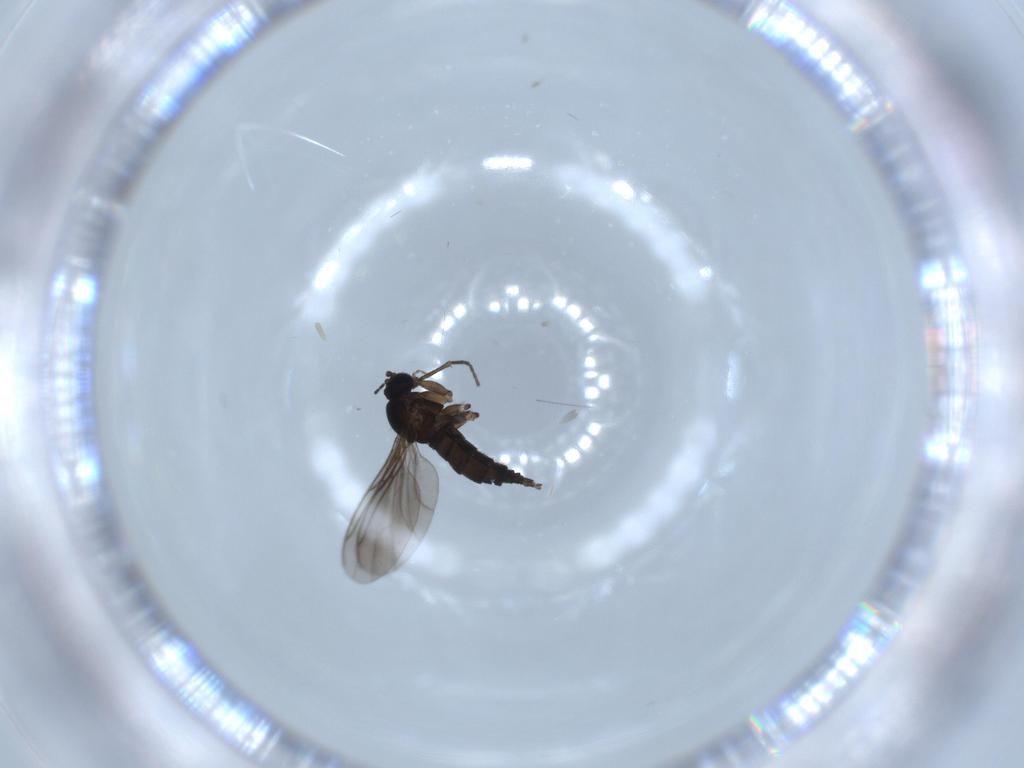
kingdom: Animalia
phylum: Arthropoda
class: Insecta
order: Diptera
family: Sciaridae
